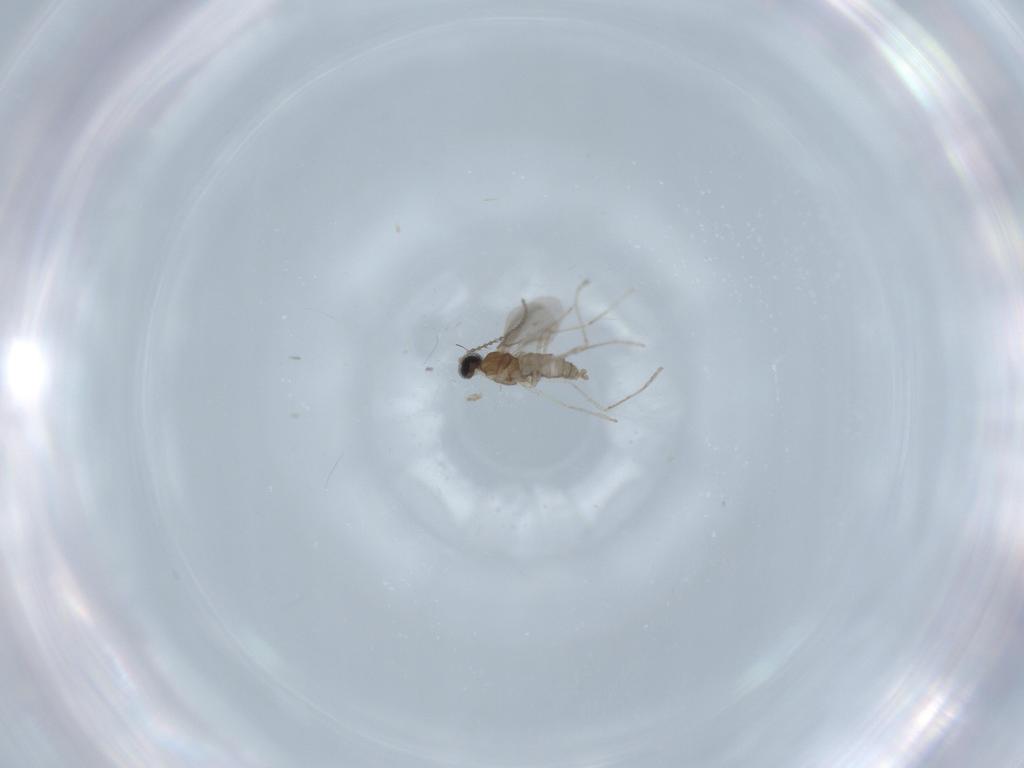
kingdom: Animalia
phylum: Arthropoda
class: Insecta
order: Diptera
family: Cecidomyiidae
